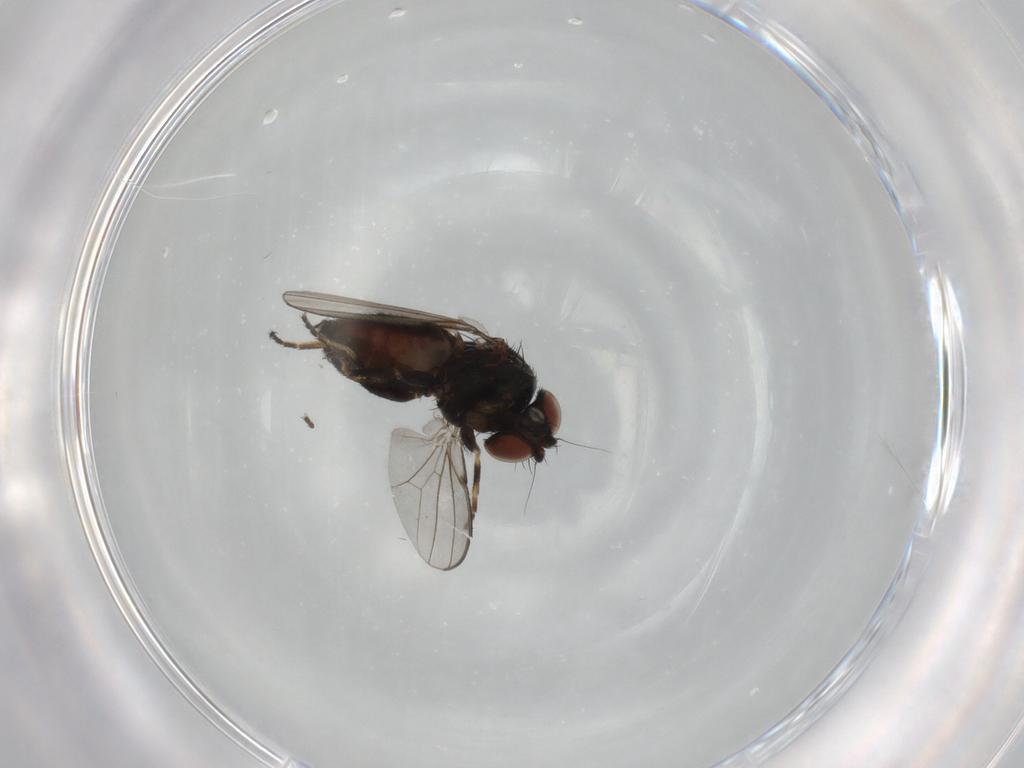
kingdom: Animalia
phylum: Arthropoda
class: Insecta
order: Diptera
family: Milichiidae
